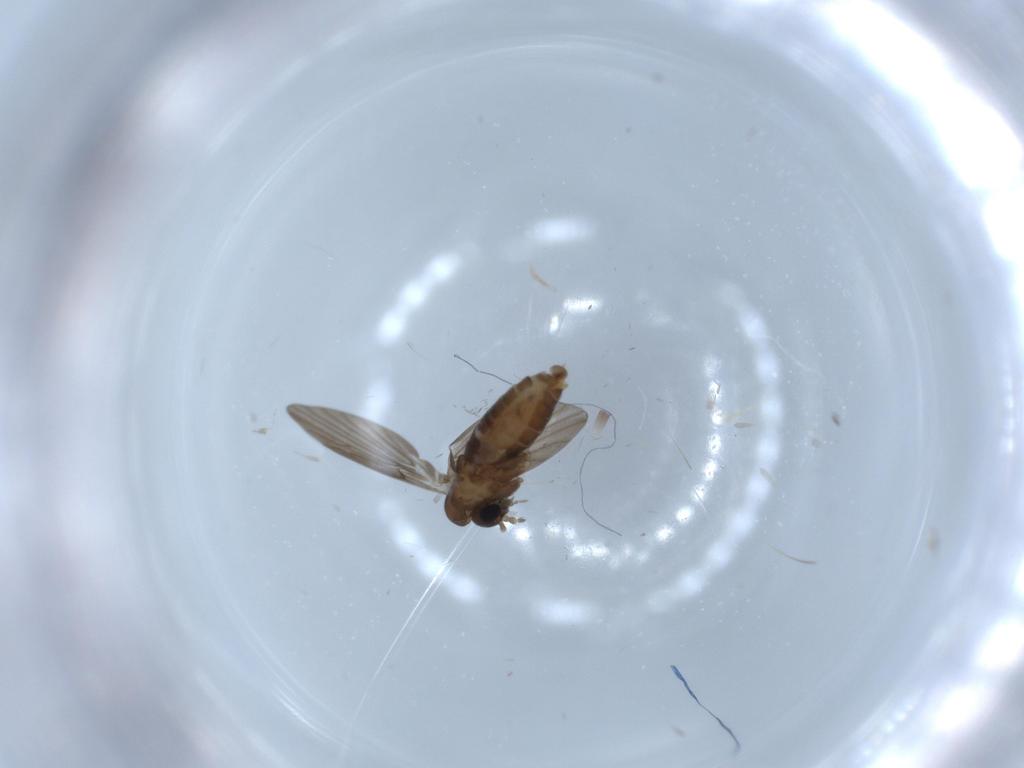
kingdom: Animalia
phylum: Arthropoda
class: Insecta
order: Diptera
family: Psychodidae
